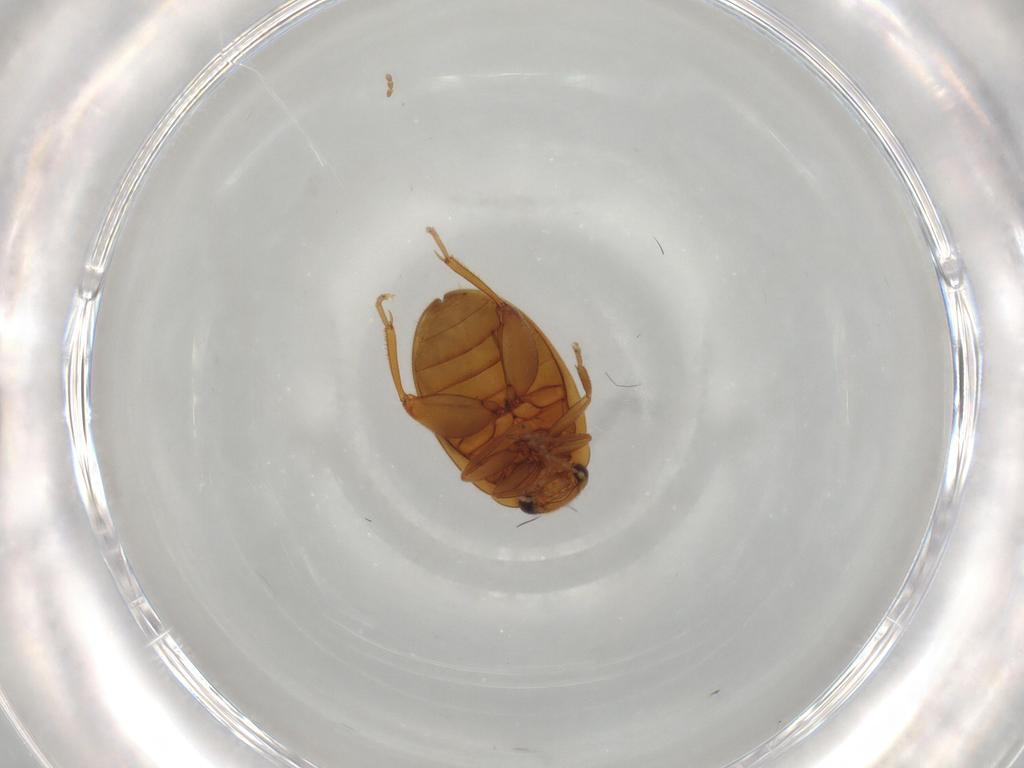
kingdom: Animalia
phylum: Arthropoda
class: Insecta
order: Coleoptera
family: Scirtidae
